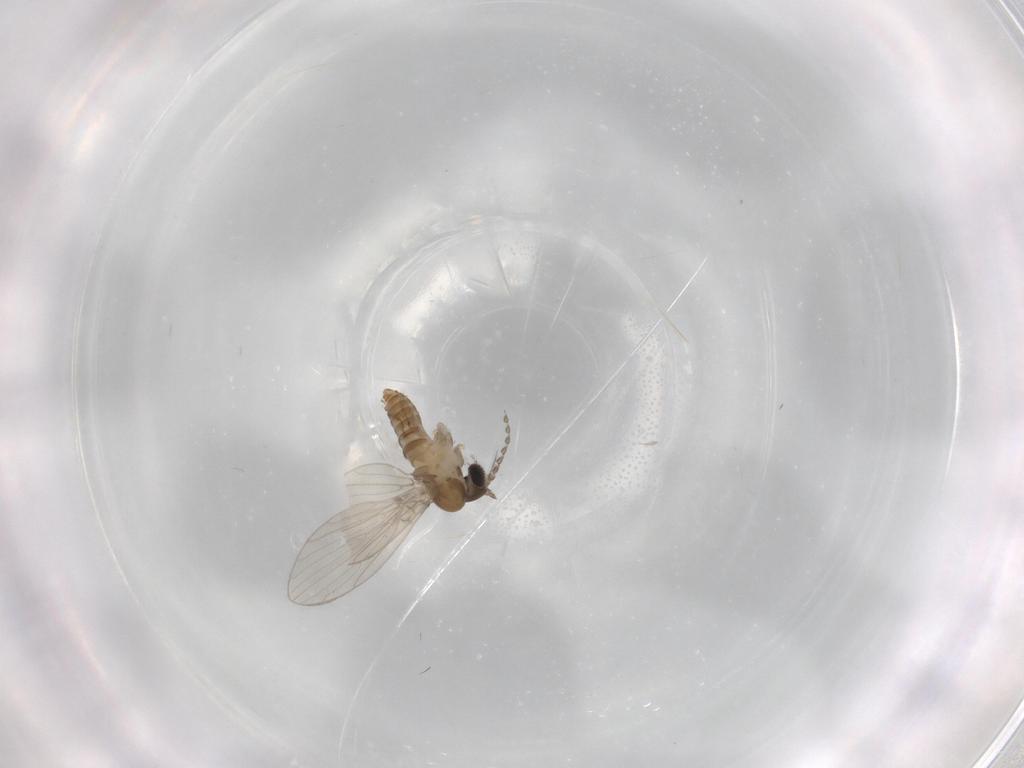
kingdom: Animalia
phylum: Arthropoda
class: Insecta
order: Diptera
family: Psychodidae
